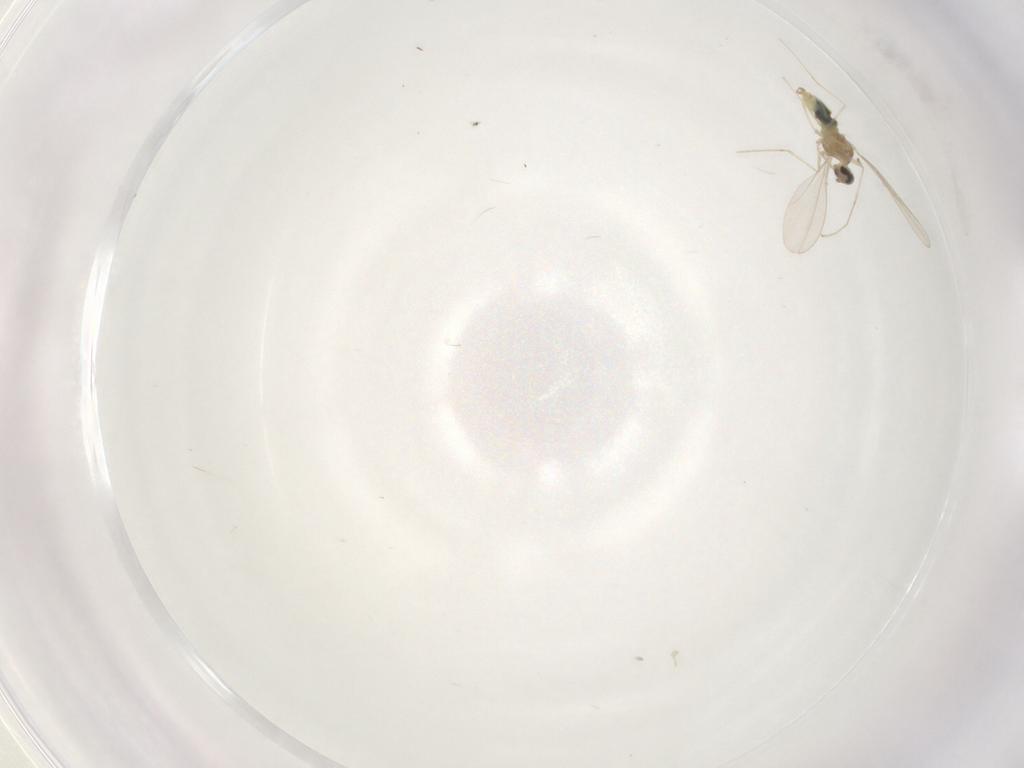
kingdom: Animalia
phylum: Arthropoda
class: Insecta
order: Diptera
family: Cecidomyiidae
